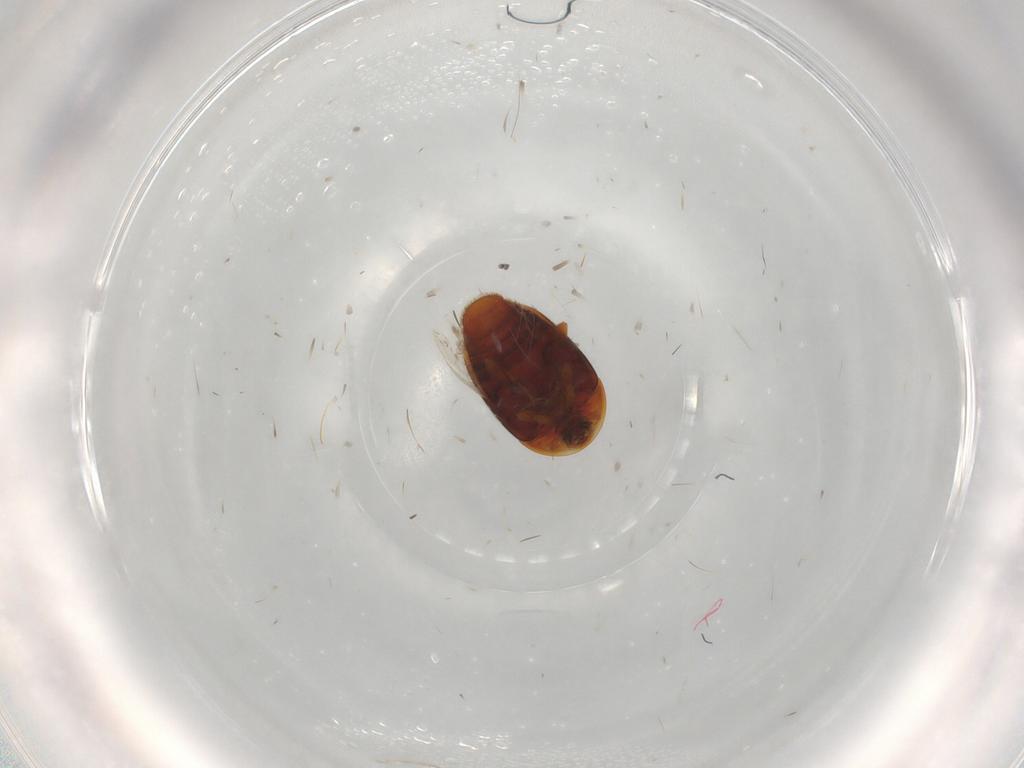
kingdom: Animalia
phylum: Arthropoda
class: Insecta
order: Coleoptera
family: Corylophidae
